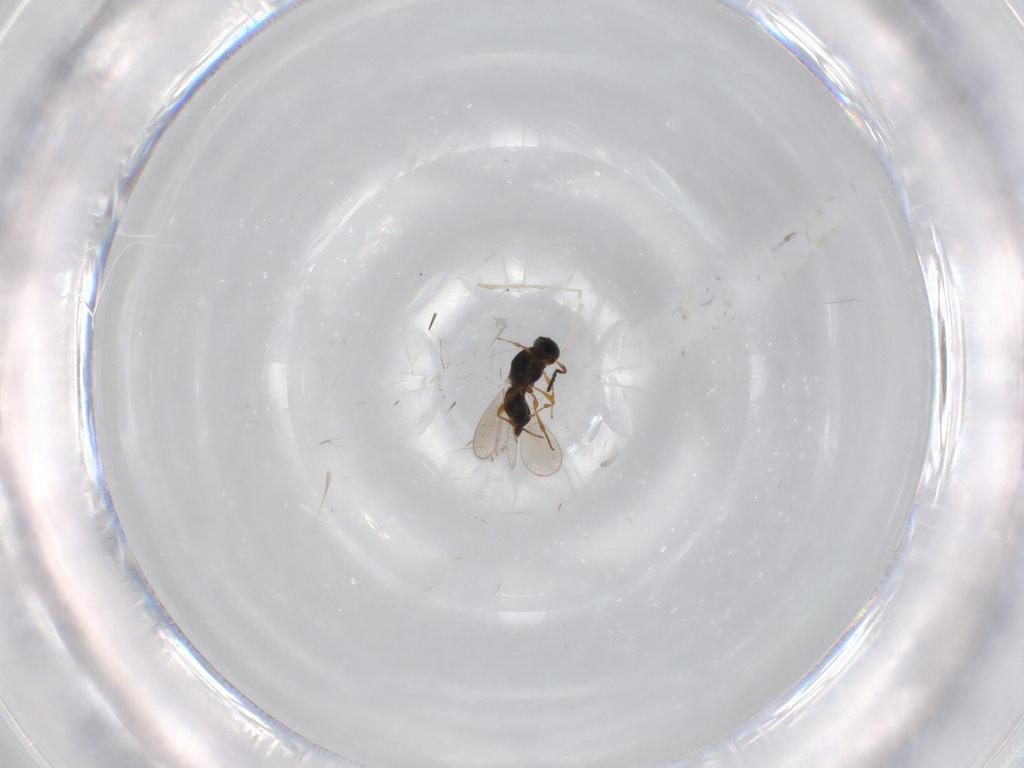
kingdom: Animalia
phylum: Arthropoda
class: Insecta
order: Hymenoptera
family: Platygastridae
